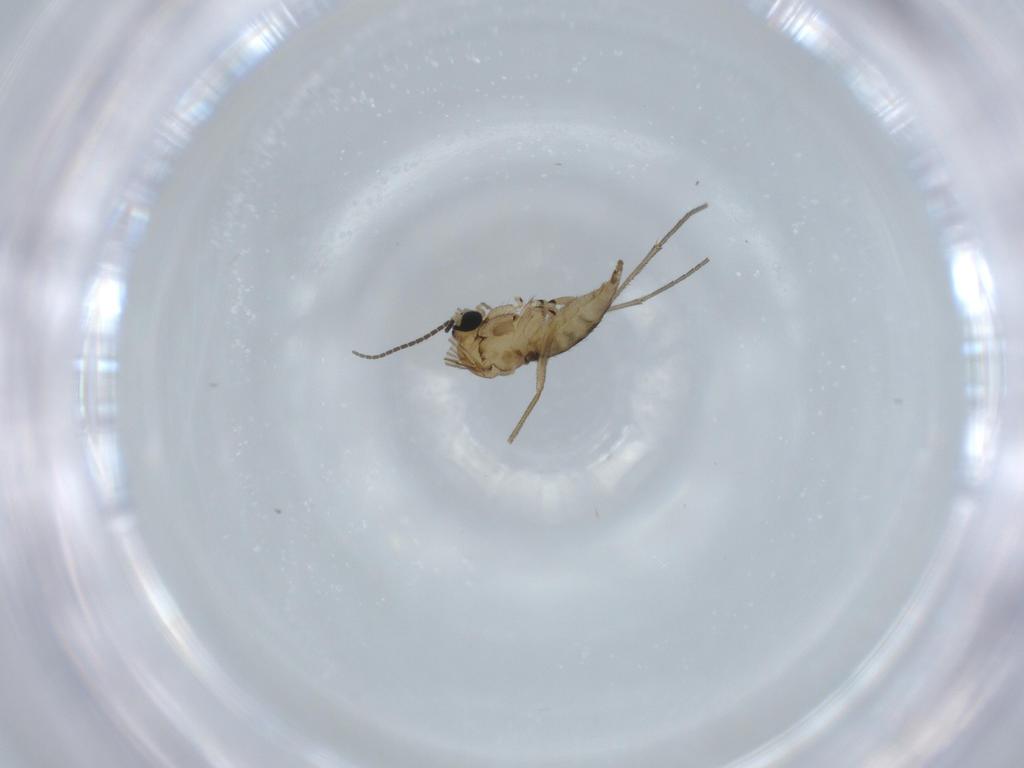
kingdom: Animalia
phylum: Arthropoda
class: Insecta
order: Diptera
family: Sciaridae
